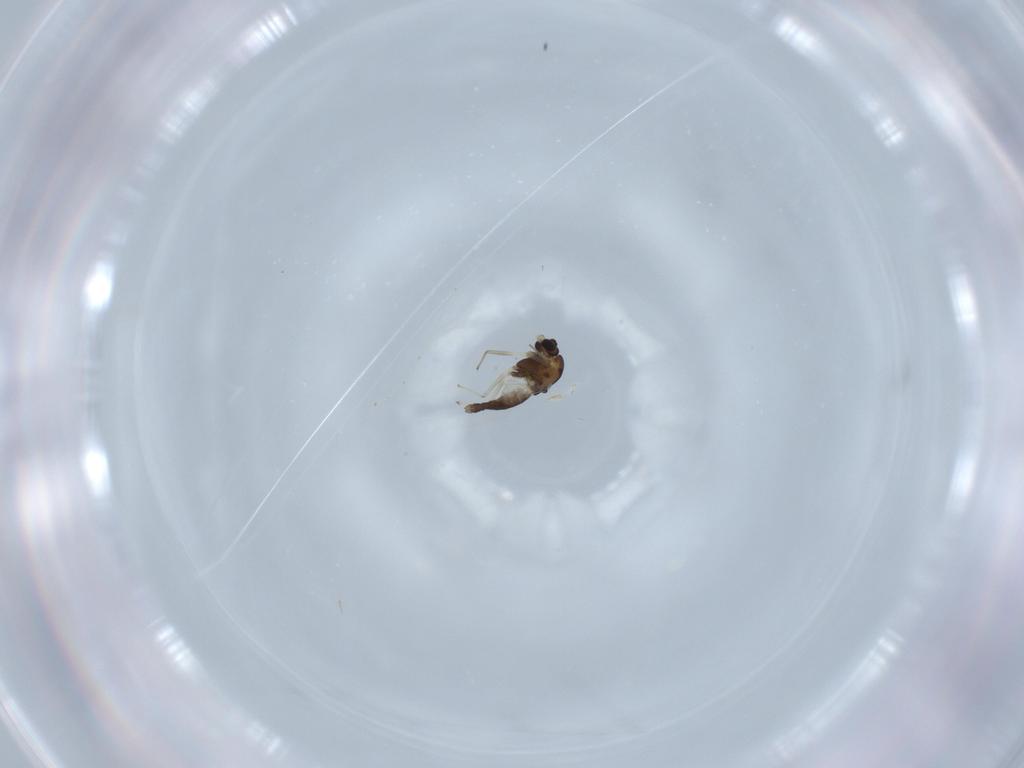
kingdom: Animalia
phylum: Arthropoda
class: Insecta
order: Diptera
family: Chironomidae
